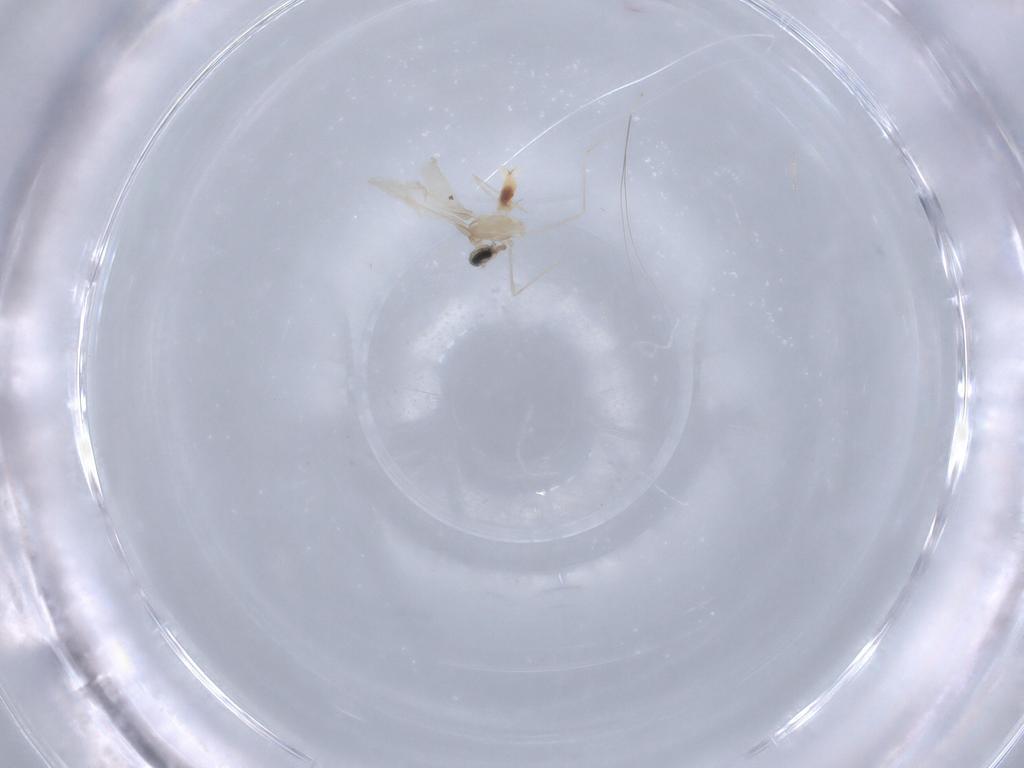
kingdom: Animalia
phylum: Arthropoda
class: Insecta
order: Diptera
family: Cecidomyiidae
